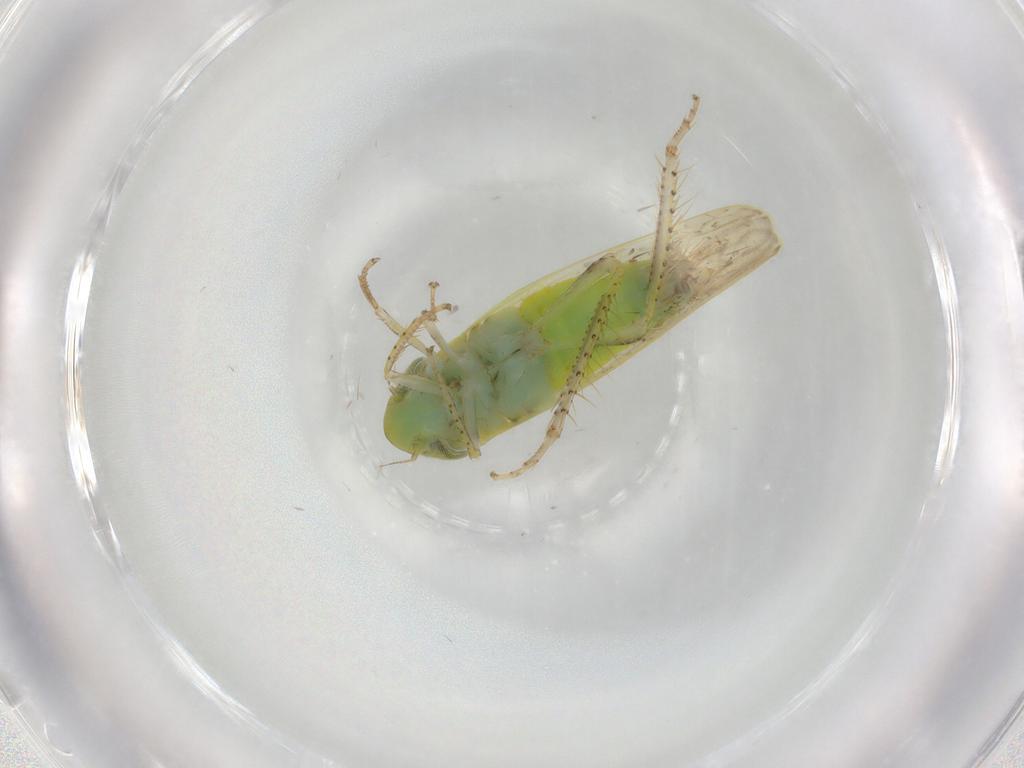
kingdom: Animalia
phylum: Arthropoda
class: Insecta
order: Hemiptera
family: Cicadellidae
